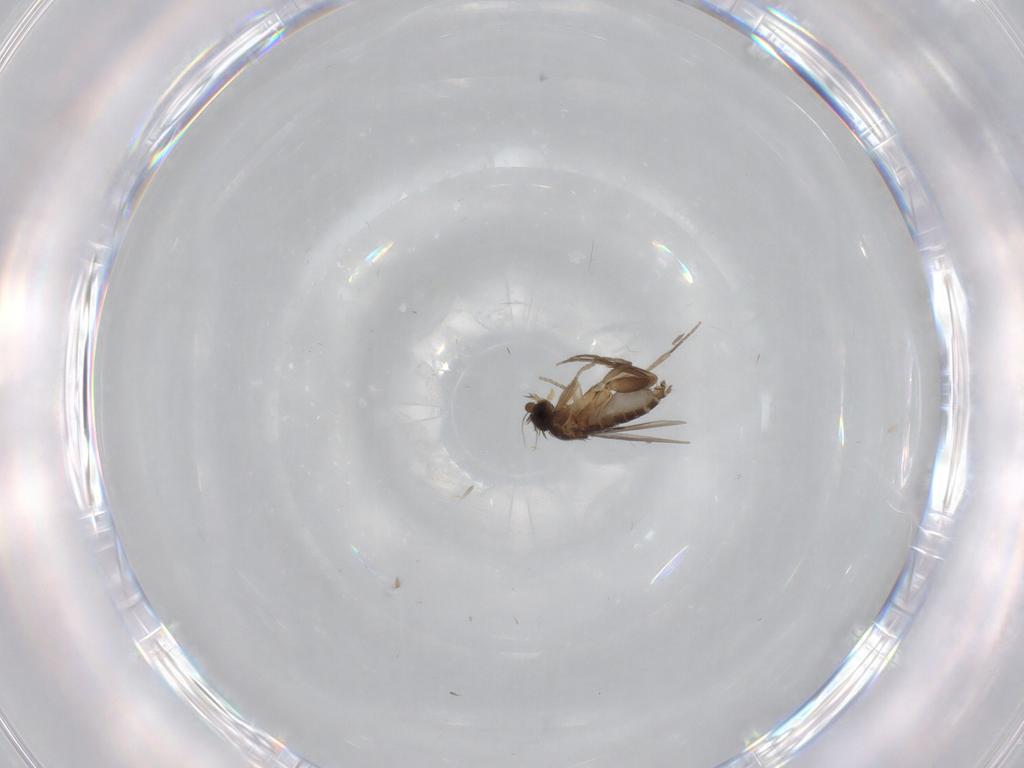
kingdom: Animalia
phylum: Arthropoda
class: Insecta
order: Diptera
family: Phoridae
